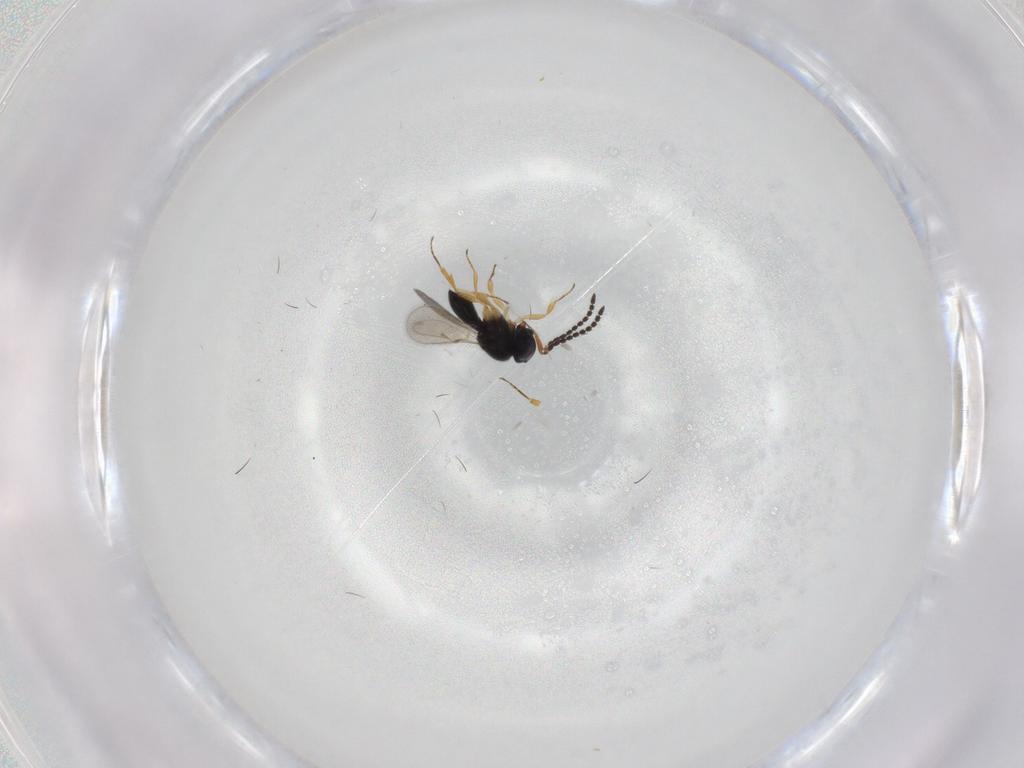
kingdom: Animalia
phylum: Arthropoda
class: Insecta
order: Hymenoptera
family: Scelionidae
